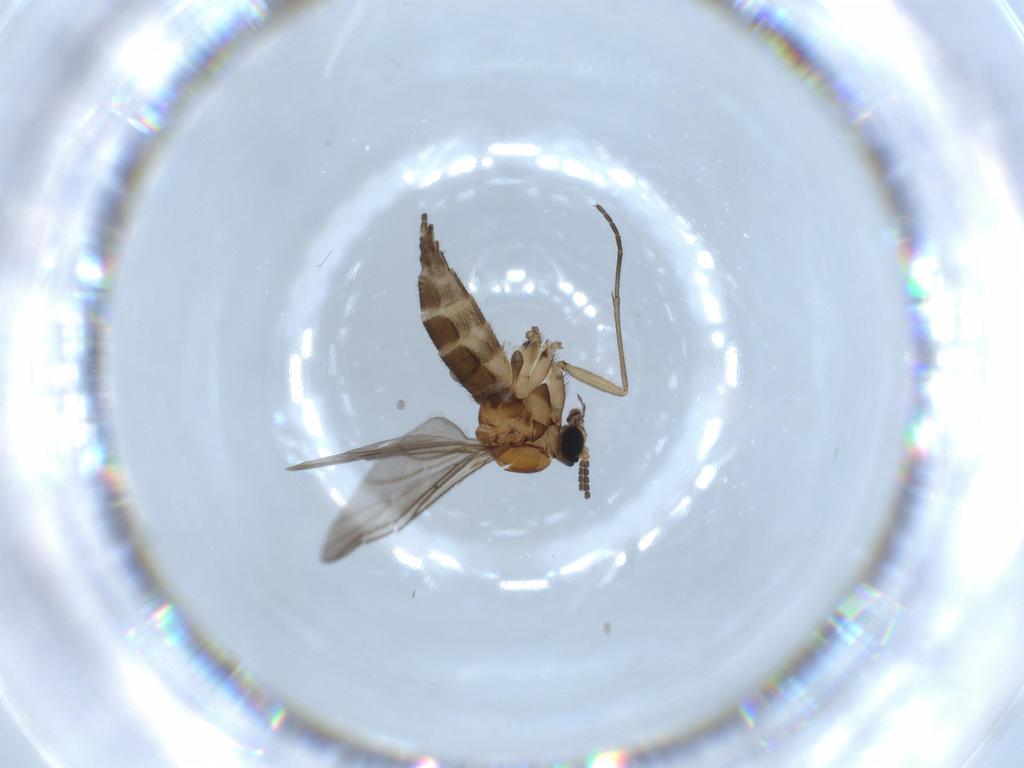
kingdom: Animalia
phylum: Arthropoda
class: Insecta
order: Diptera
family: Sciaridae
